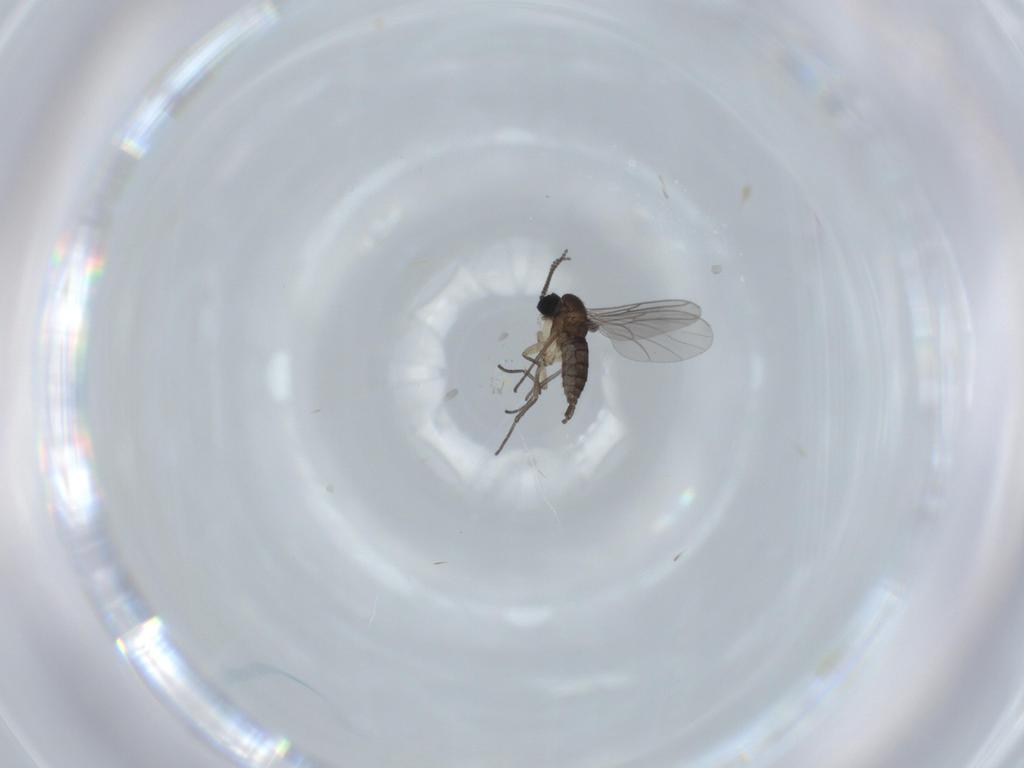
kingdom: Animalia
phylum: Arthropoda
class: Insecta
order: Diptera
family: Sciaridae
